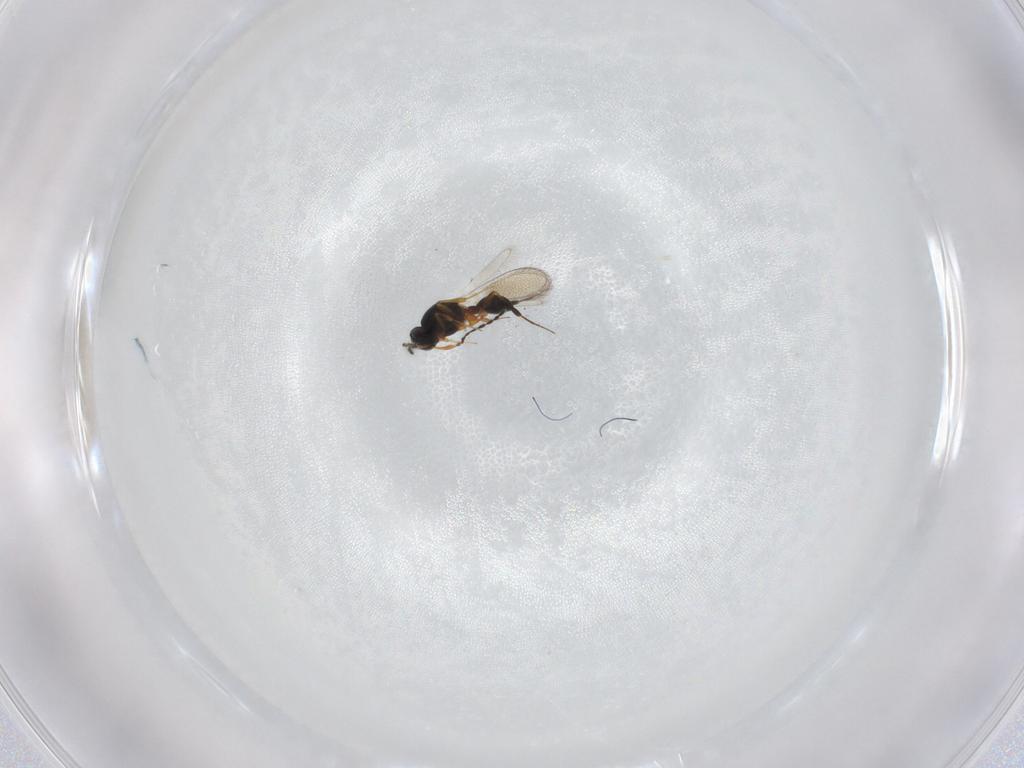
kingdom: Animalia
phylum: Arthropoda
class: Insecta
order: Hymenoptera
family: Platygastridae
